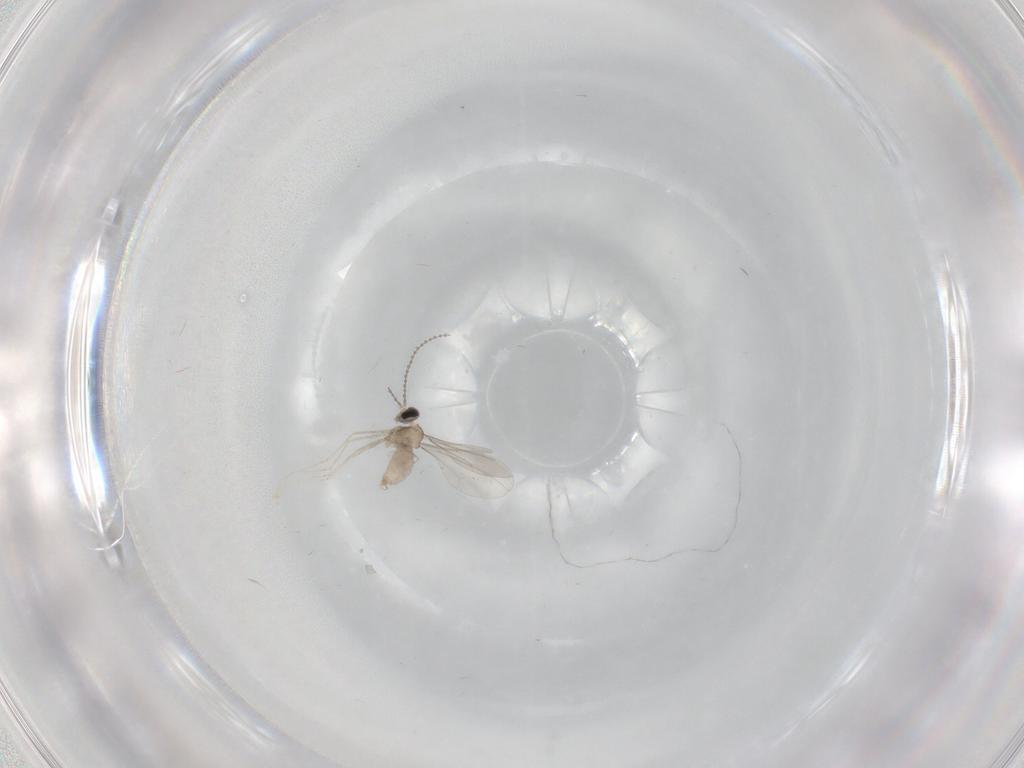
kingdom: Animalia
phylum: Arthropoda
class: Insecta
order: Diptera
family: Cecidomyiidae
